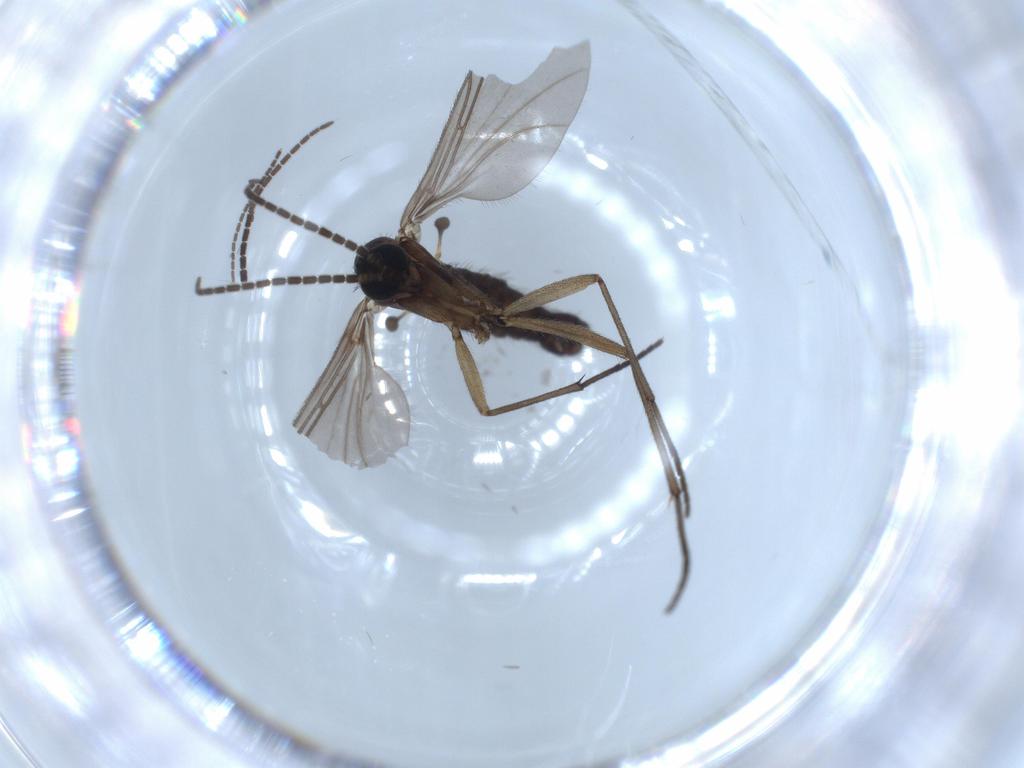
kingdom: Animalia
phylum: Arthropoda
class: Insecta
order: Diptera
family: Sciaridae
